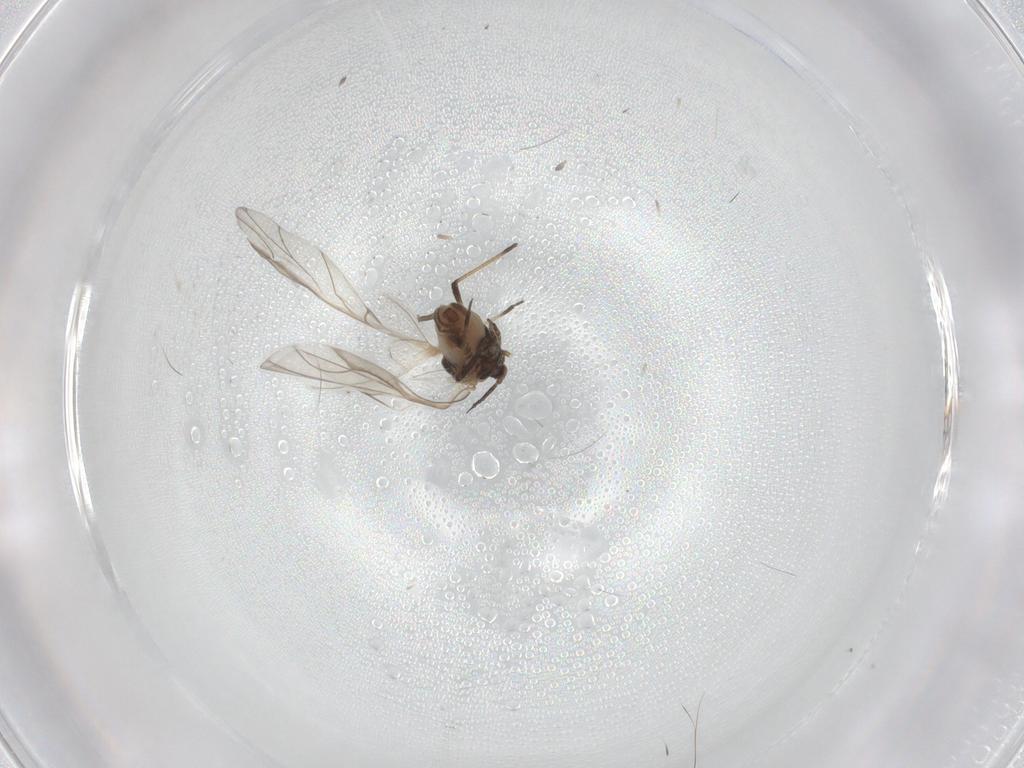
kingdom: Animalia
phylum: Arthropoda
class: Insecta
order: Hemiptera
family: Aphididae
